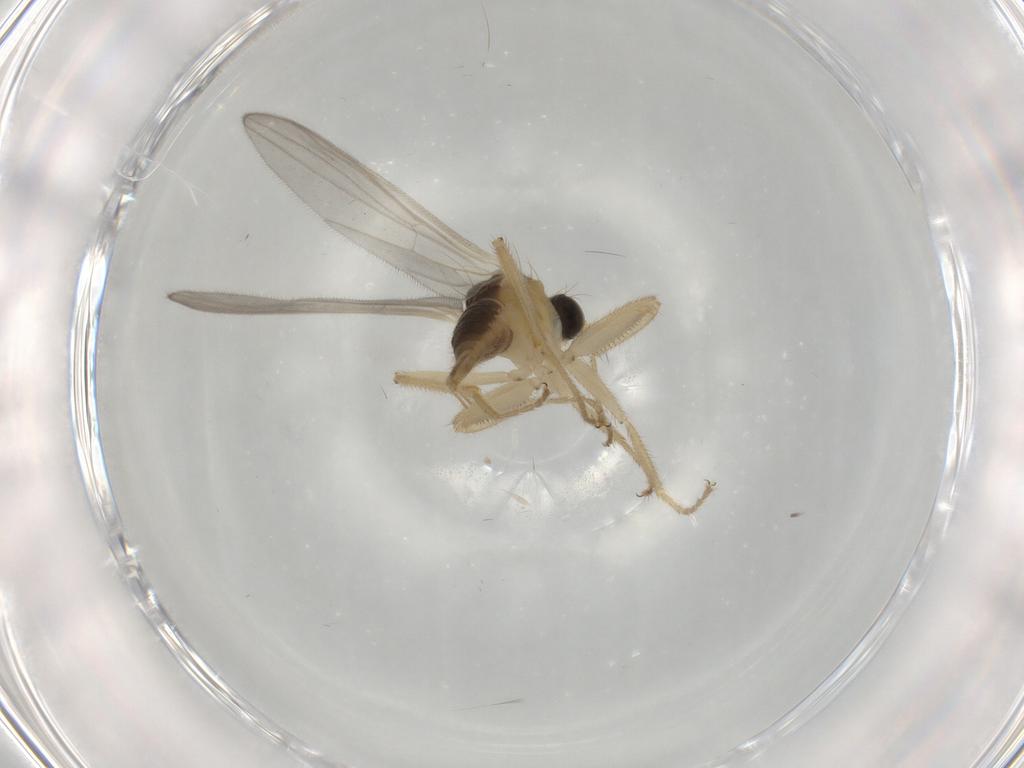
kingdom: Animalia
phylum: Arthropoda
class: Insecta
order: Diptera
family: Hybotidae
